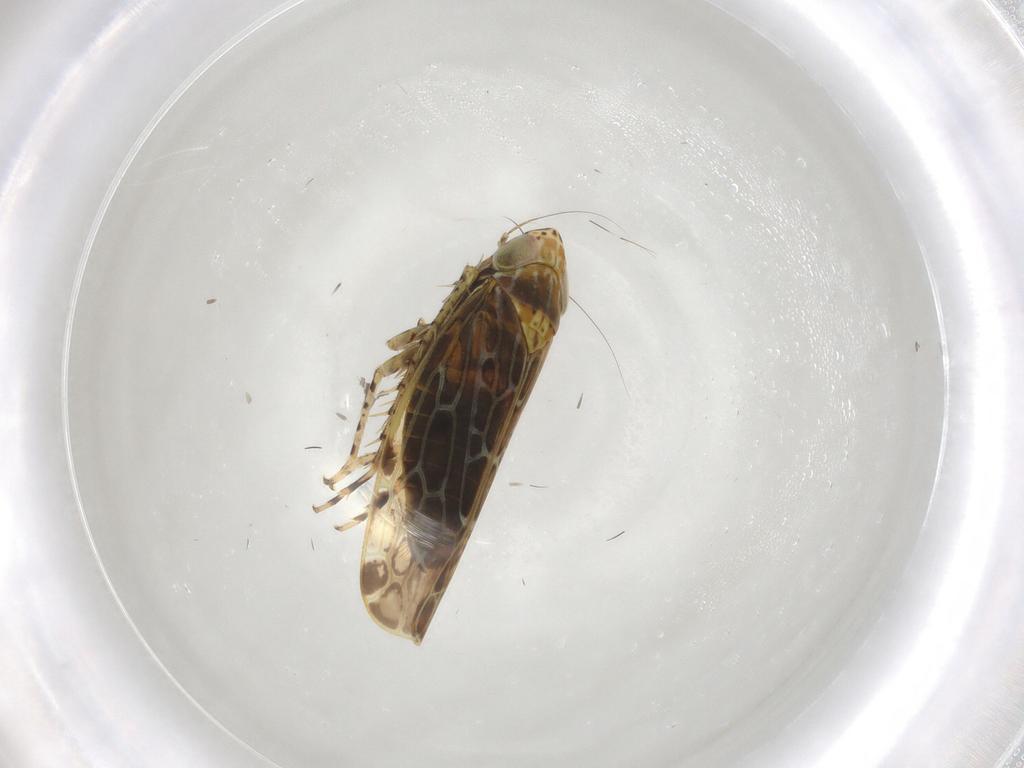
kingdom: Animalia
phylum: Arthropoda
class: Insecta
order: Hemiptera
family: Cicadellidae
